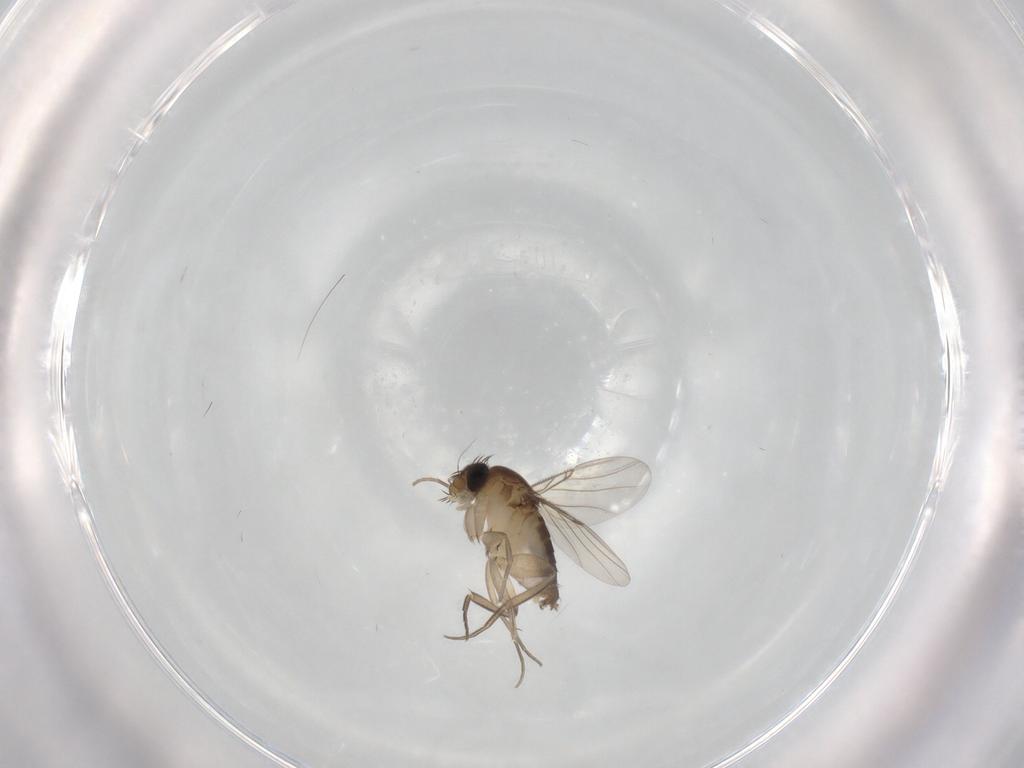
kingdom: Animalia
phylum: Arthropoda
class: Insecta
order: Diptera
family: Phoridae
